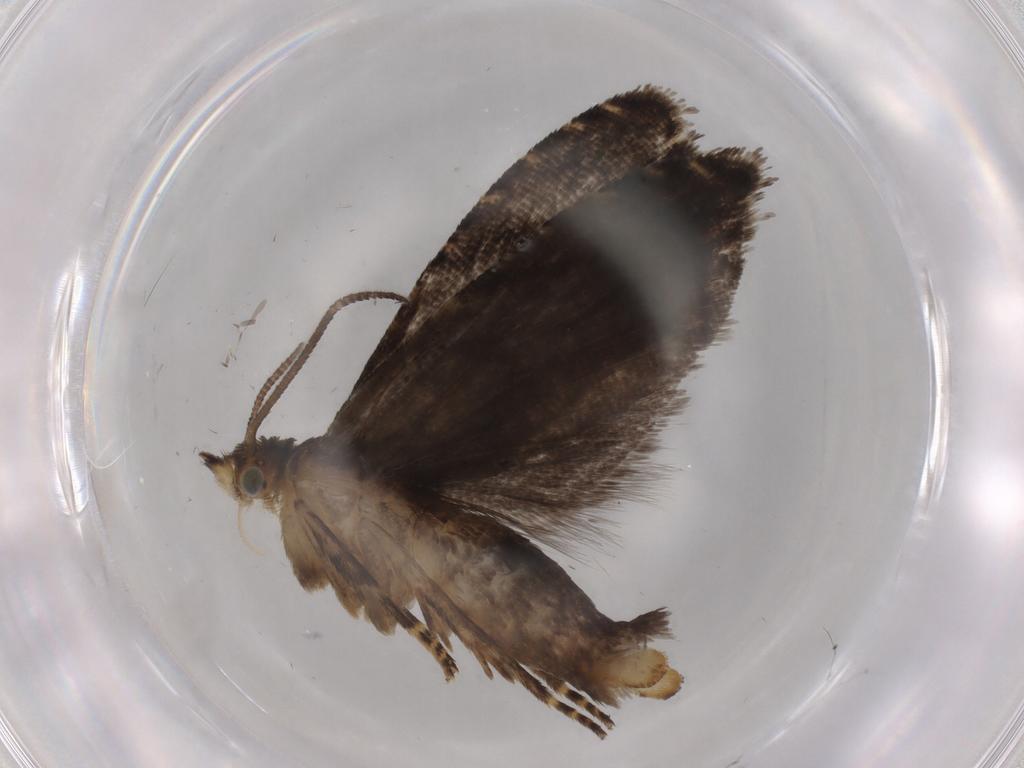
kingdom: Animalia
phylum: Arthropoda
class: Insecta
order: Lepidoptera
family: Tortricidae
